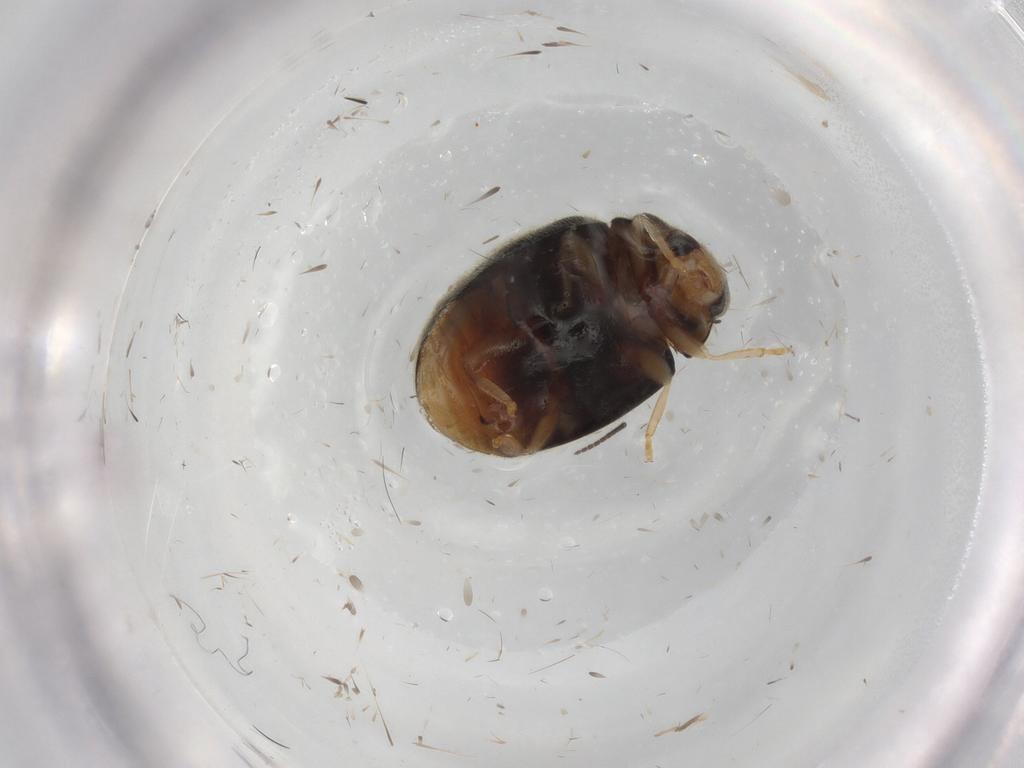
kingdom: Animalia
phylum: Arthropoda
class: Insecta
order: Coleoptera
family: Coccinellidae
